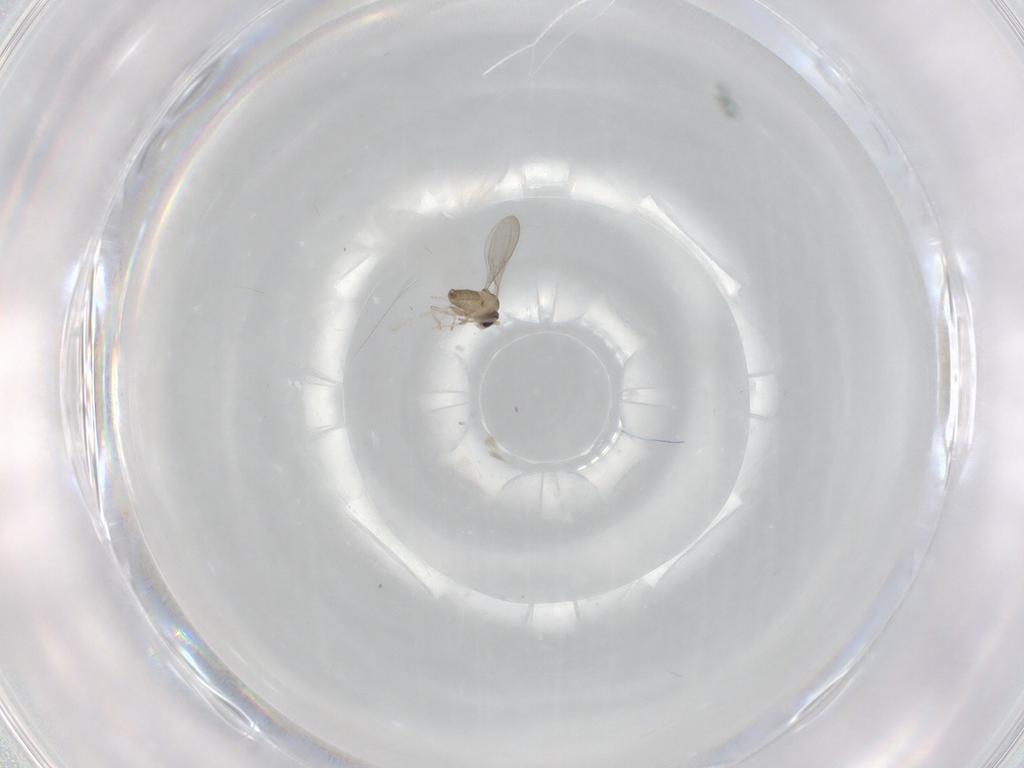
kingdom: Animalia
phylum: Arthropoda
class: Insecta
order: Diptera
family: Cecidomyiidae
